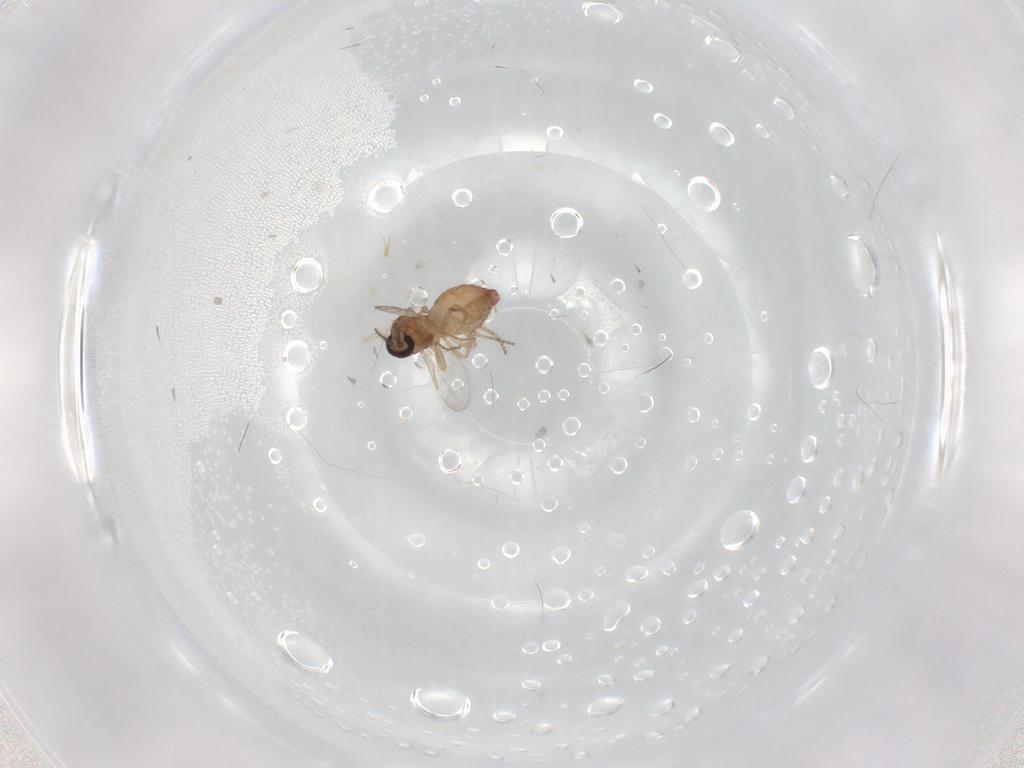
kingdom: Animalia
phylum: Arthropoda
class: Insecta
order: Diptera
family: Ceratopogonidae
